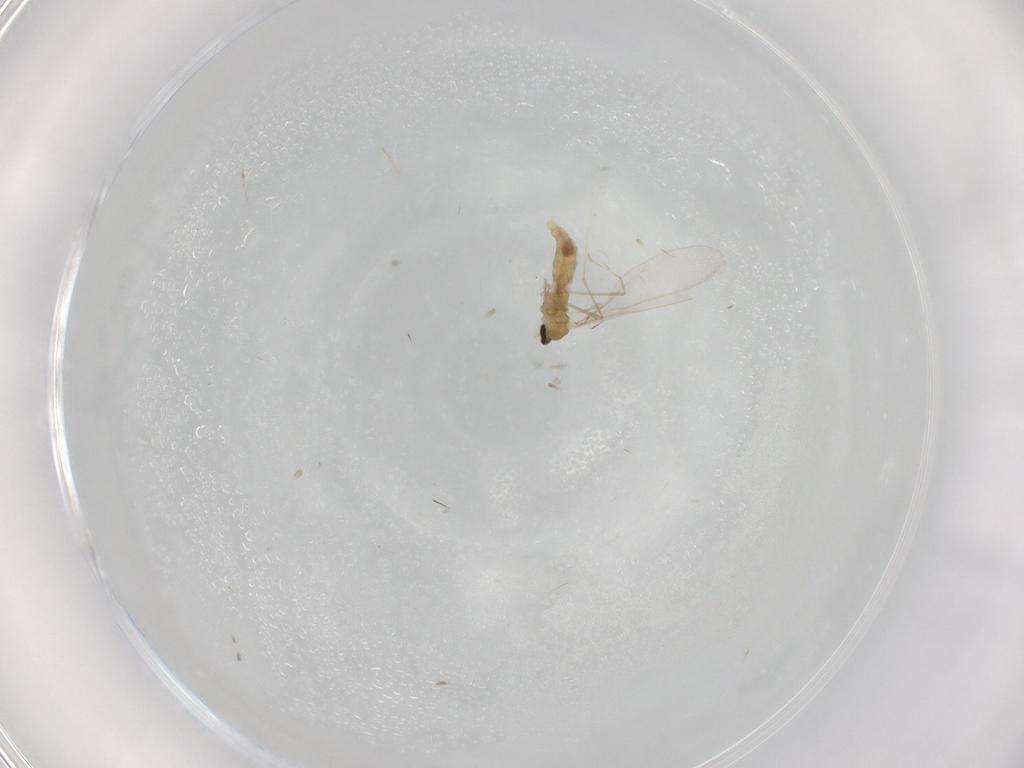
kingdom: Animalia
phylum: Arthropoda
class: Insecta
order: Diptera
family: Cecidomyiidae
